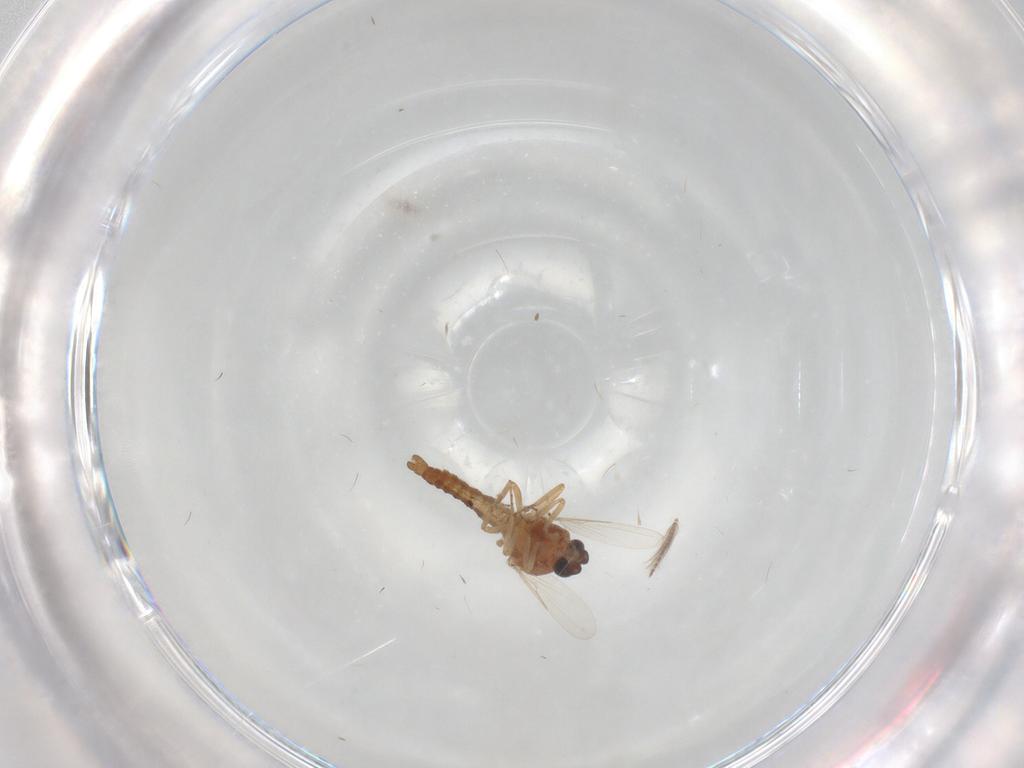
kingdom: Animalia
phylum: Arthropoda
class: Insecta
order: Diptera
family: Ceratopogonidae
